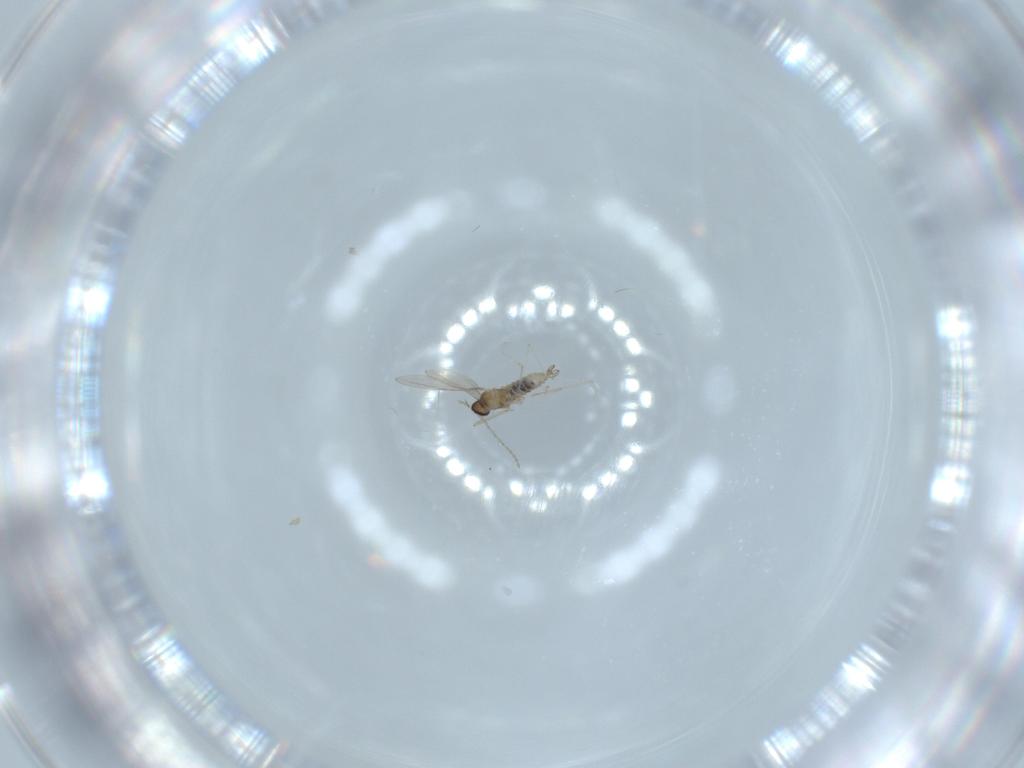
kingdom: Animalia
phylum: Arthropoda
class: Insecta
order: Diptera
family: Cecidomyiidae
